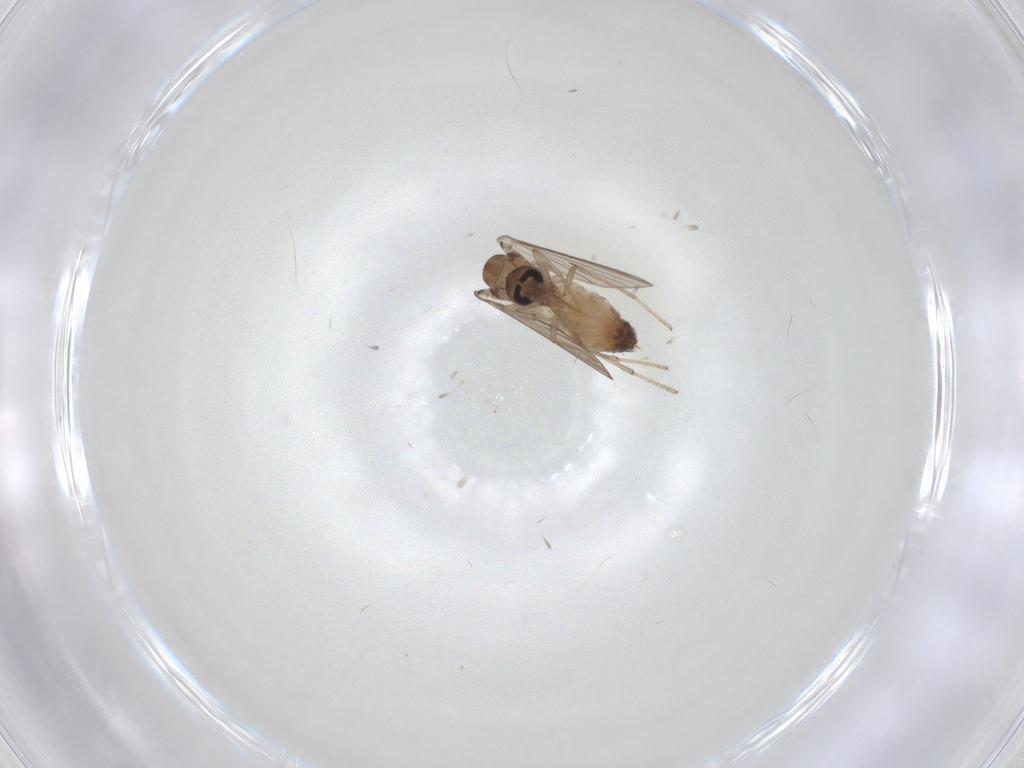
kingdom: Animalia
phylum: Arthropoda
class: Insecta
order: Diptera
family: Psychodidae
